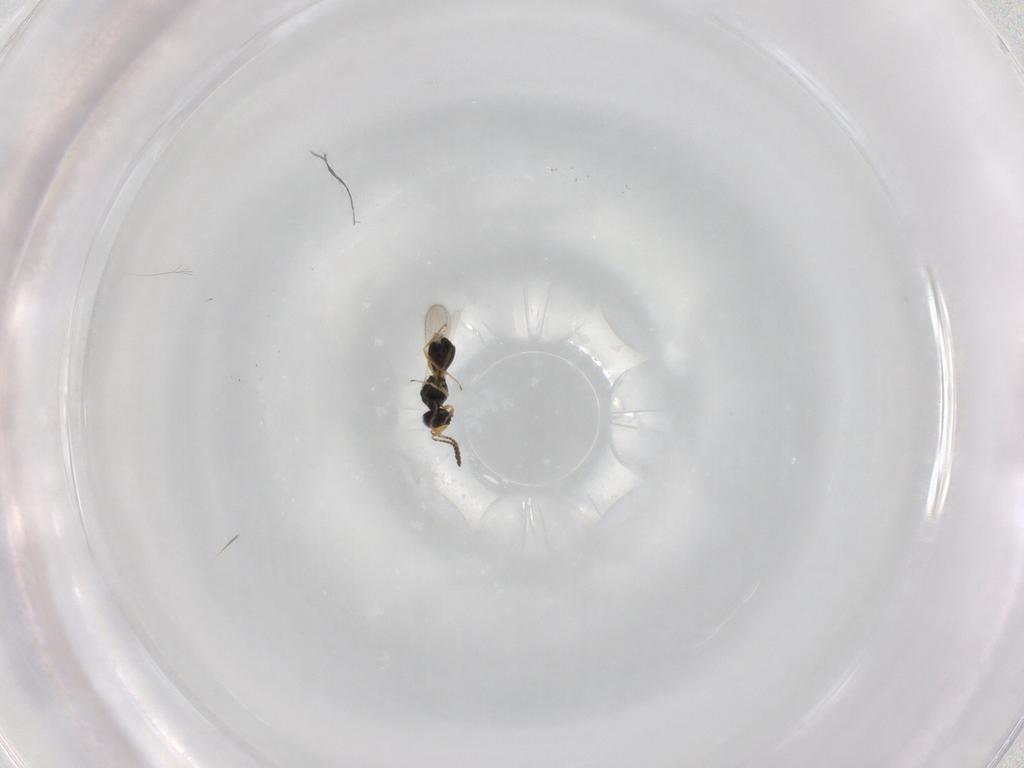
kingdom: Animalia
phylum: Arthropoda
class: Insecta
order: Hymenoptera
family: Scelionidae
